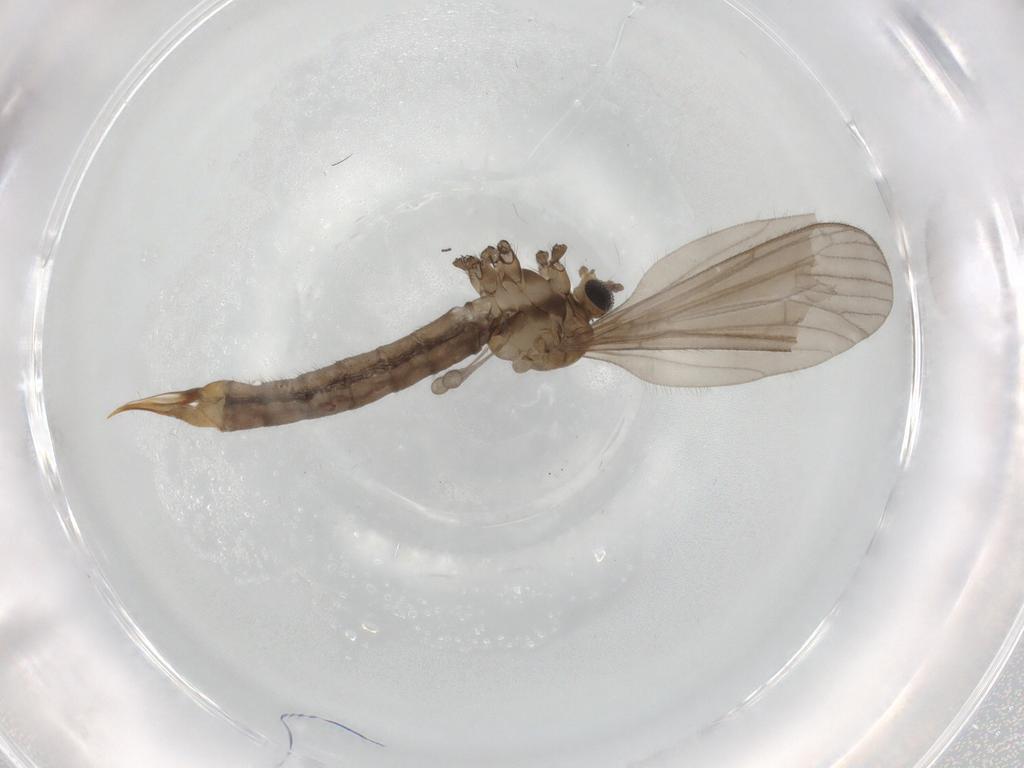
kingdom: Animalia
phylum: Arthropoda
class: Insecta
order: Diptera
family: Limoniidae
